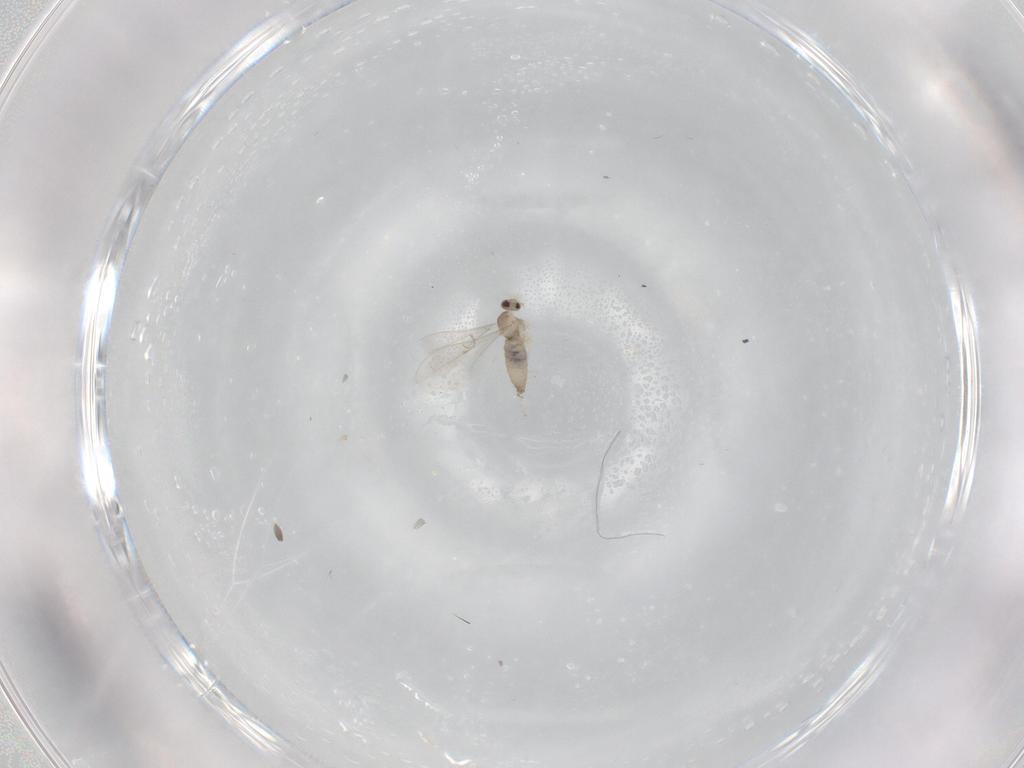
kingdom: Animalia
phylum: Arthropoda
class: Insecta
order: Diptera
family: Cecidomyiidae
